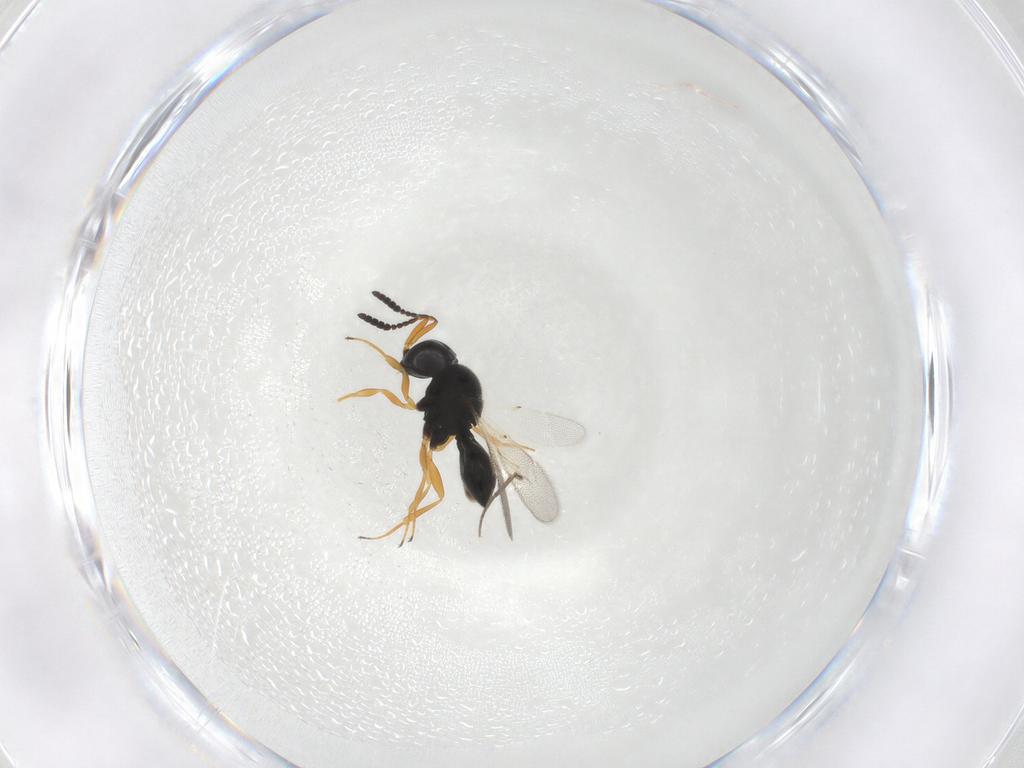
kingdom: Animalia
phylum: Arthropoda
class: Insecta
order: Hymenoptera
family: Scelionidae
